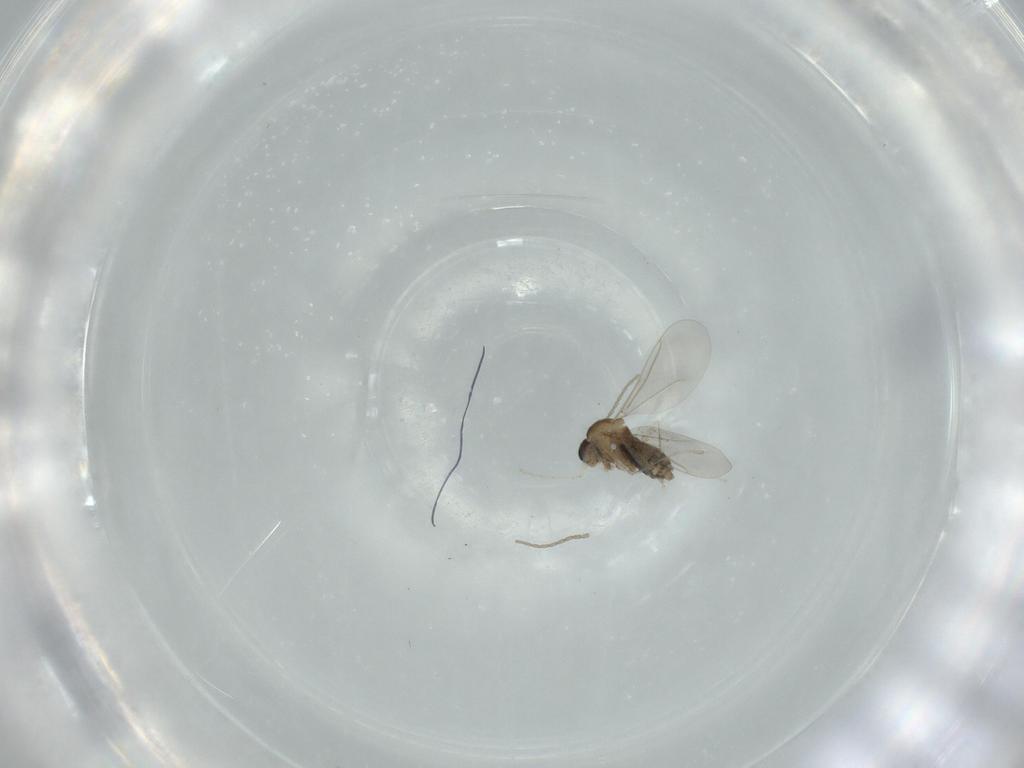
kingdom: Animalia
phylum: Arthropoda
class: Insecta
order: Diptera
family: Cecidomyiidae
